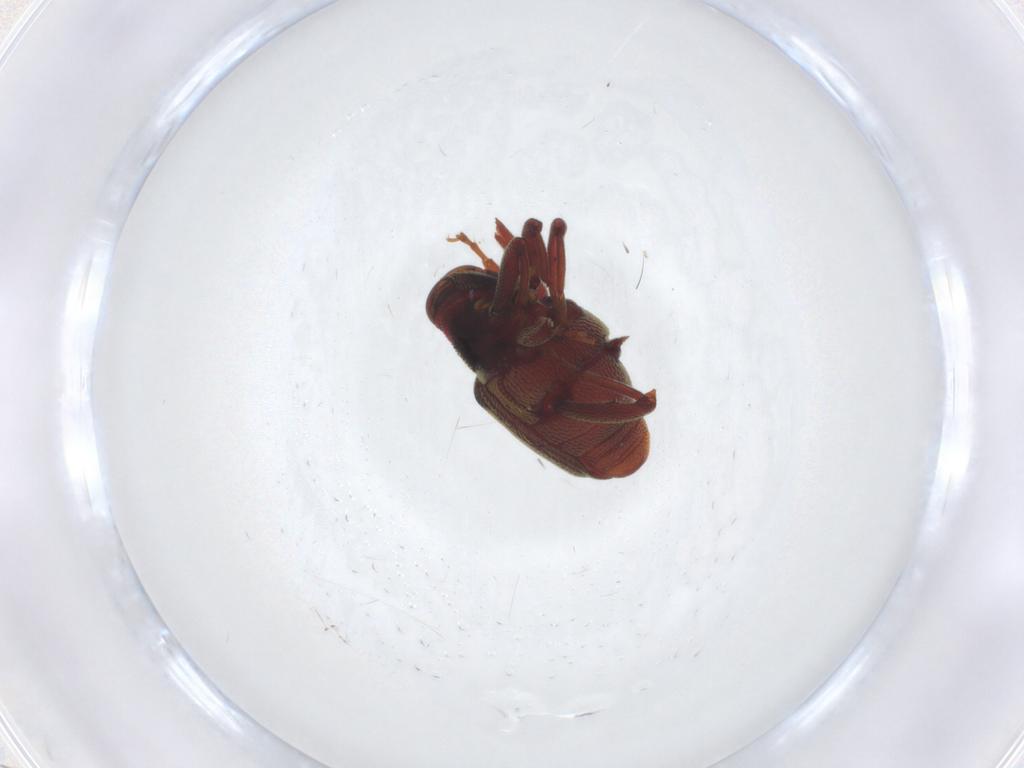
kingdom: Animalia
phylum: Arthropoda
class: Insecta
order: Coleoptera
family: Curculionidae
